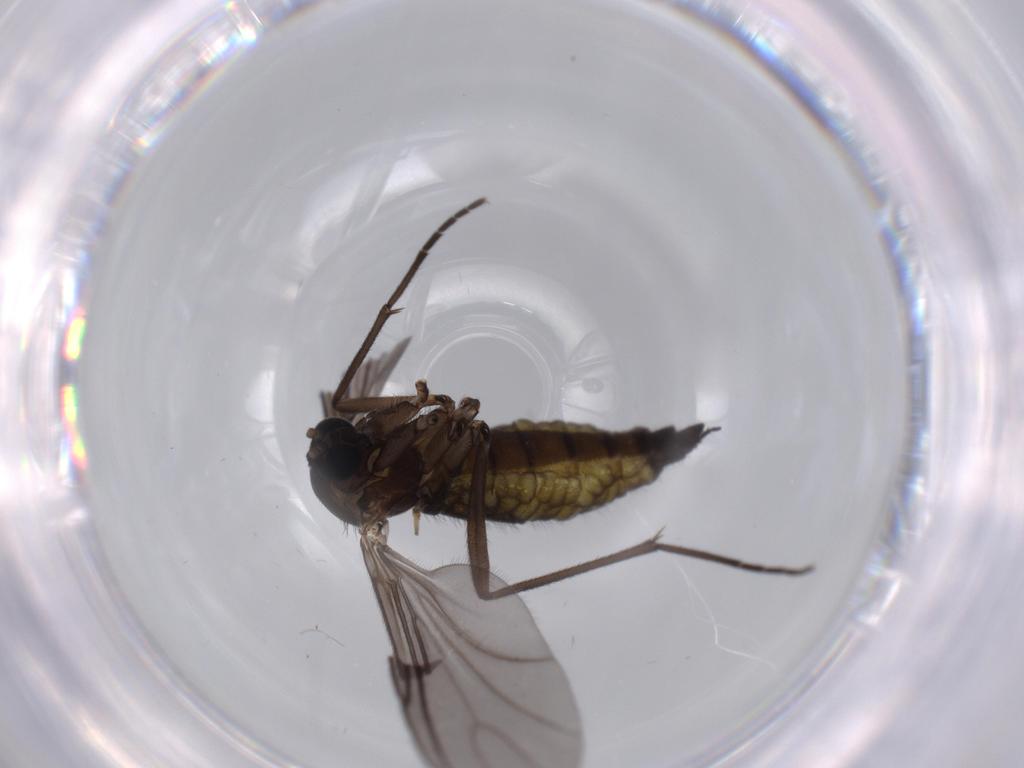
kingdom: Animalia
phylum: Arthropoda
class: Insecta
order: Diptera
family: Sciaridae
